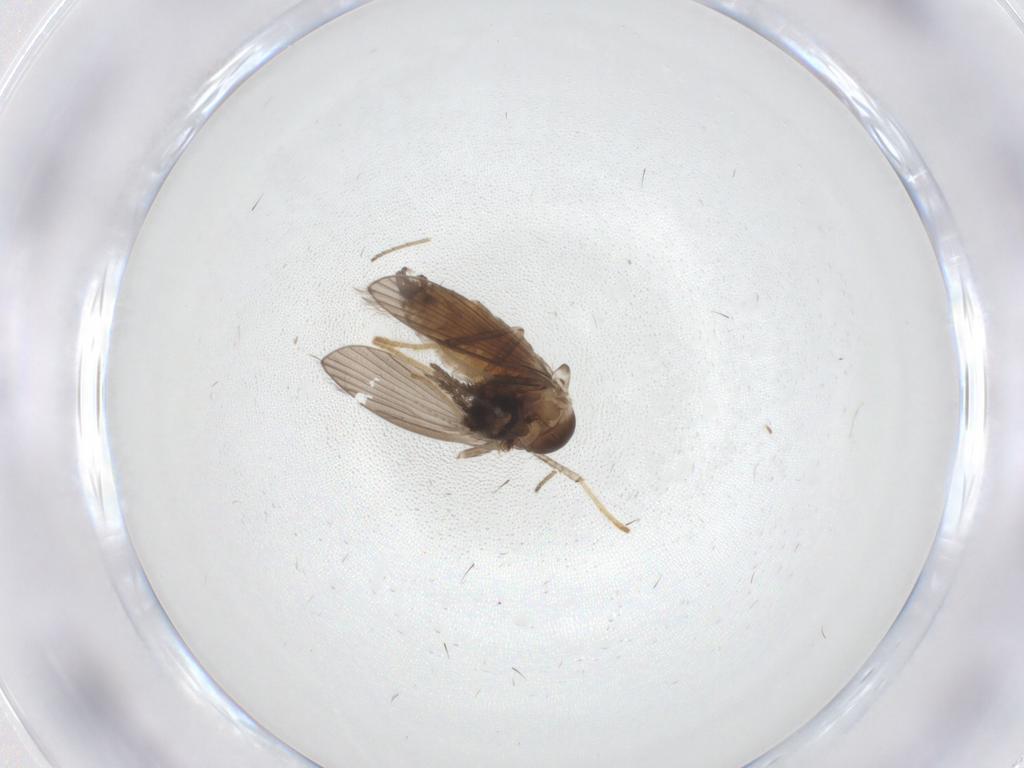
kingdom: Animalia
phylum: Arthropoda
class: Insecta
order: Diptera
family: Psychodidae
